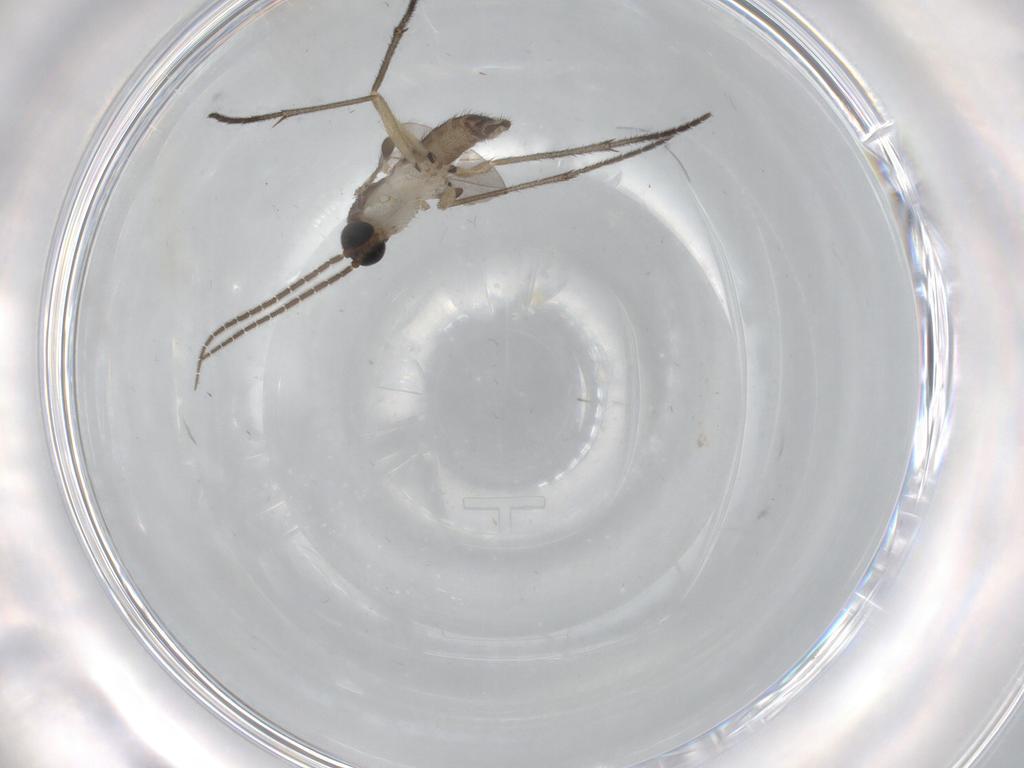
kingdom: Animalia
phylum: Arthropoda
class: Insecta
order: Diptera
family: Sciaridae
